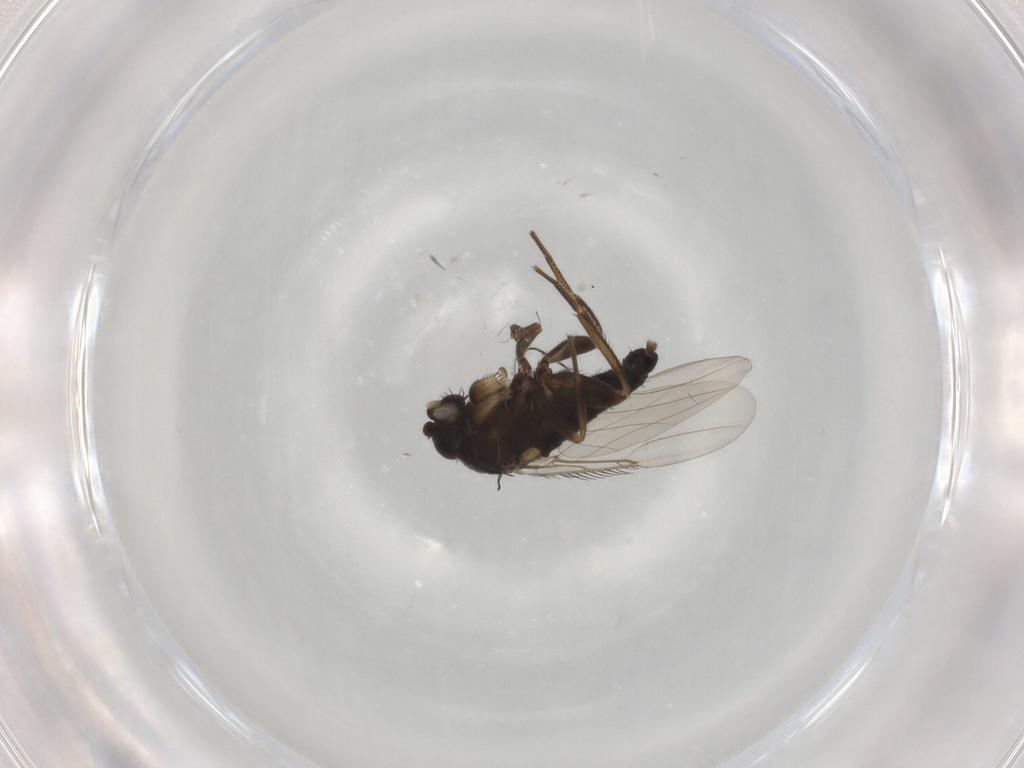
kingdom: Animalia
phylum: Arthropoda
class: Insecta
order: Diptera
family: Phoridae
